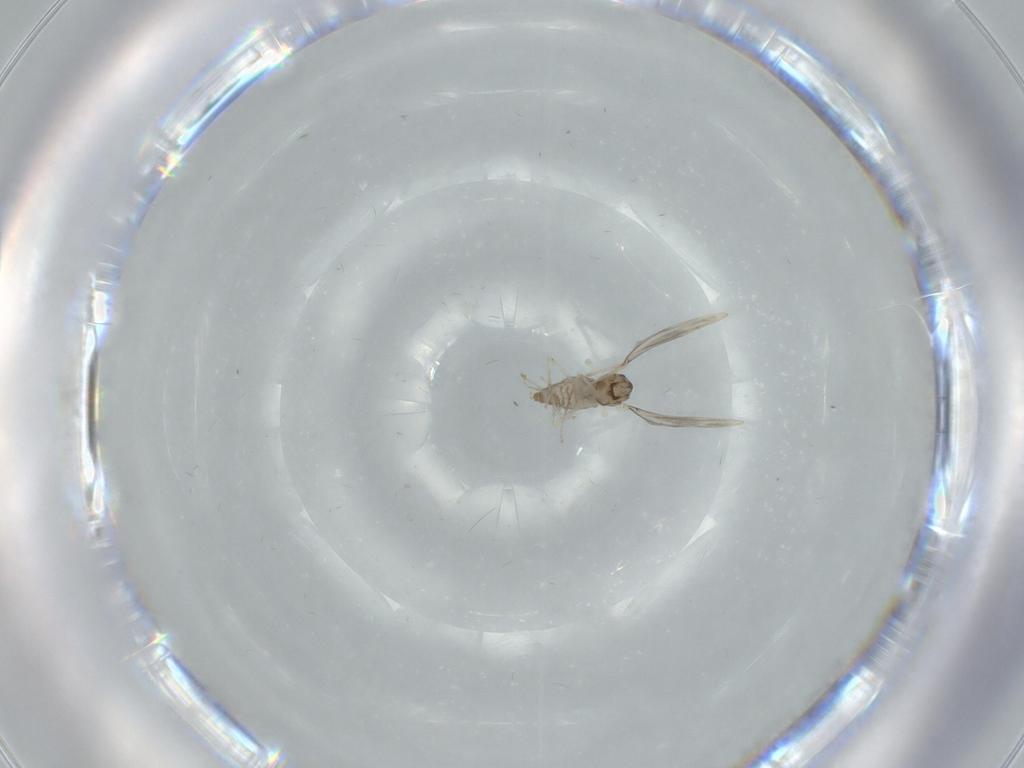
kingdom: Animalia
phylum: Arthropoda
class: Insecta
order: Diptera
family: Cecidomyiidae
